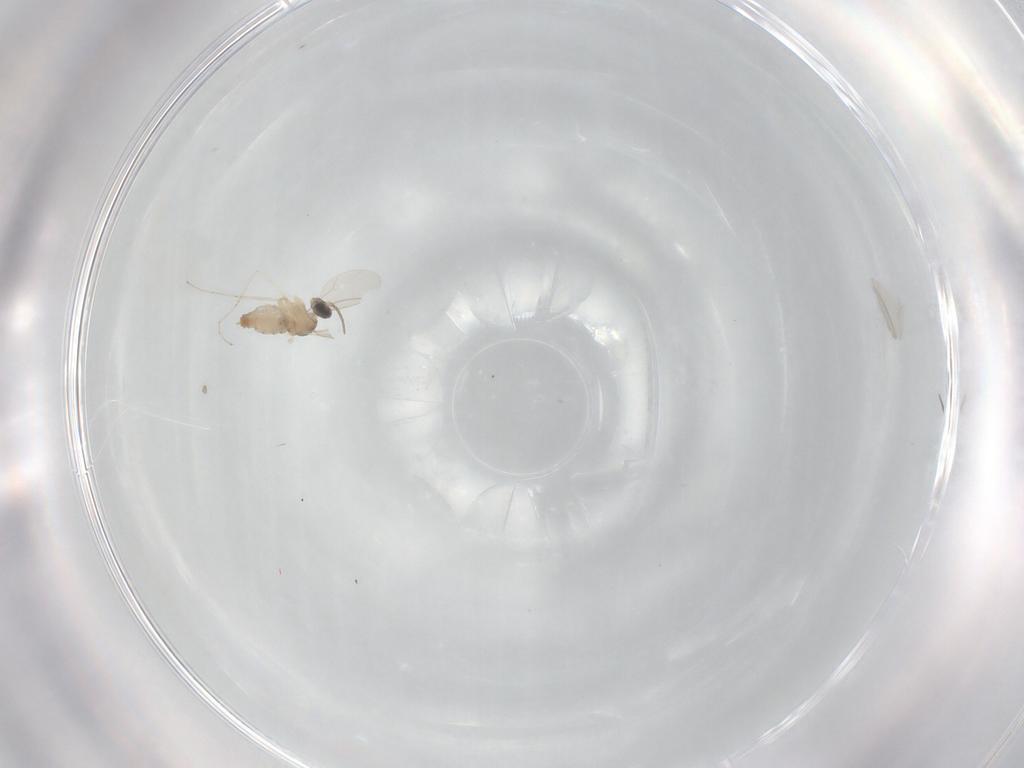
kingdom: Animalia
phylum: Arthropoda
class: Insecta
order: Diptera
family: Cecidomyiidae
